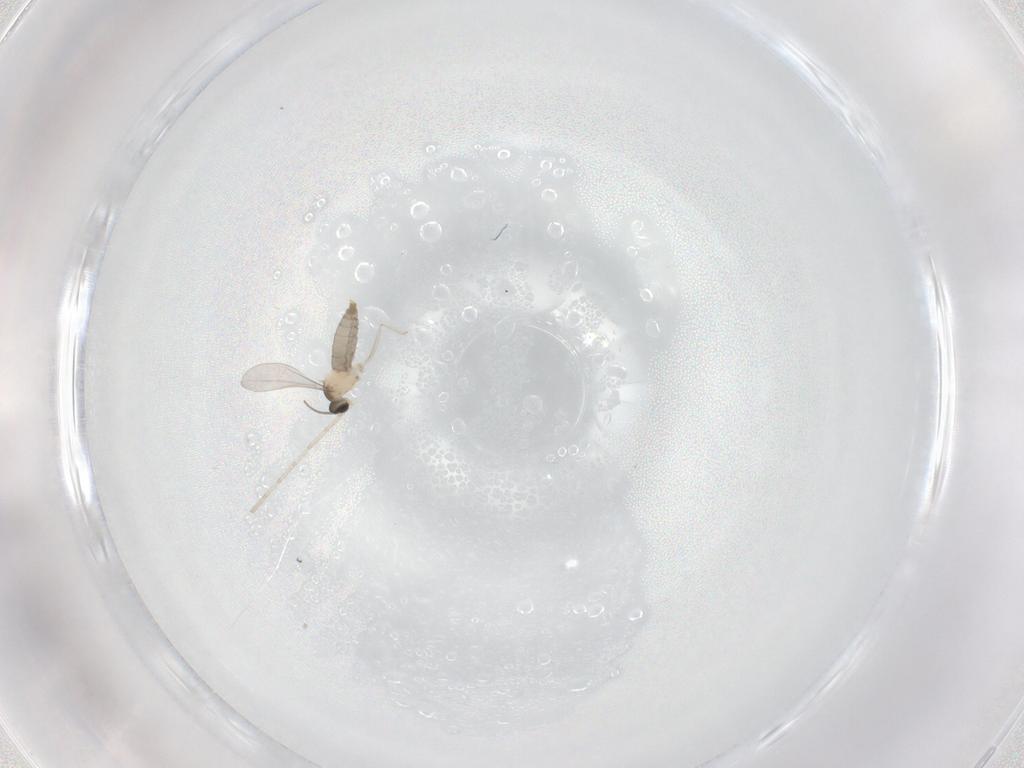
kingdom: Animalia
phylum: Arthropoda
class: Insecta
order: Diptera
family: Cecidomyiidae
